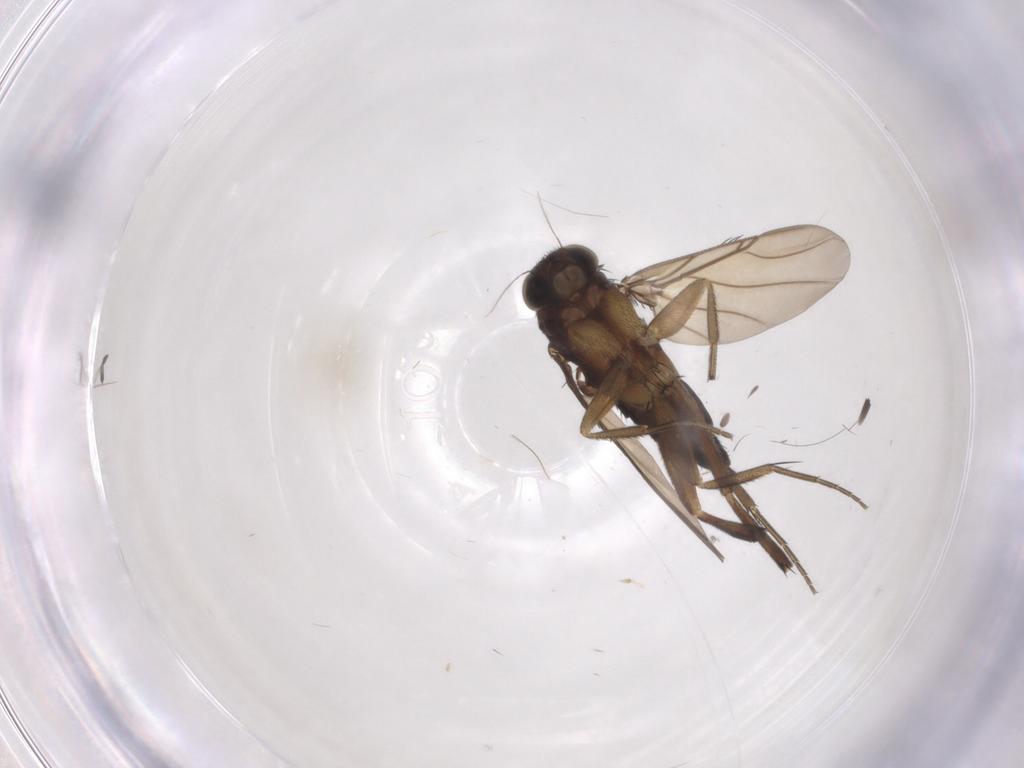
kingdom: Animalia
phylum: Arthropoda
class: Insecta
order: Diptera
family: Phoridae
